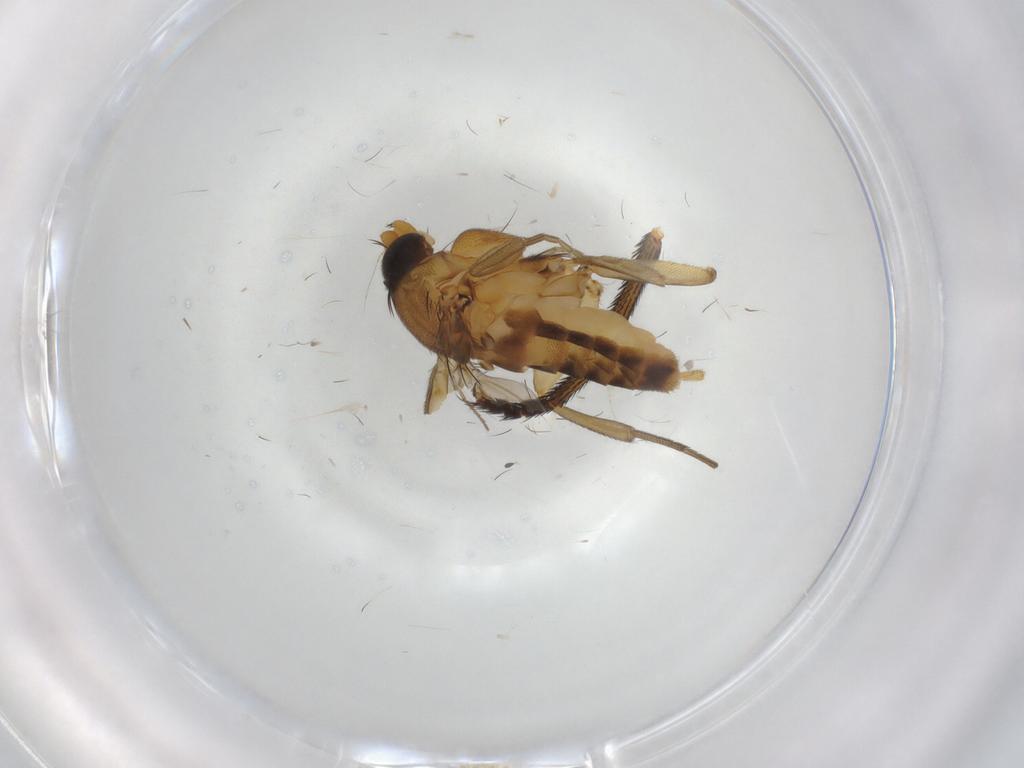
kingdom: Animalia
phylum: Arthropoda
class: Insecta
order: Diptera
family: Chironomidae
